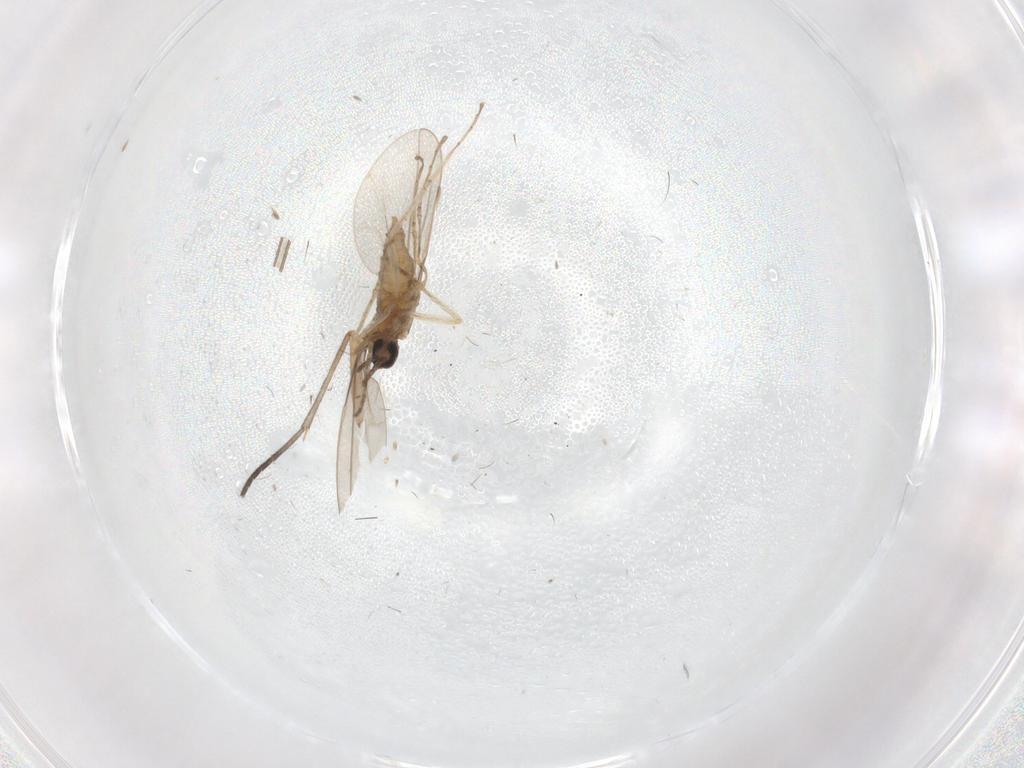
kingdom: Animalia
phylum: Arthropoda
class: Insecta
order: Diptera
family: Cecidomyiidae
